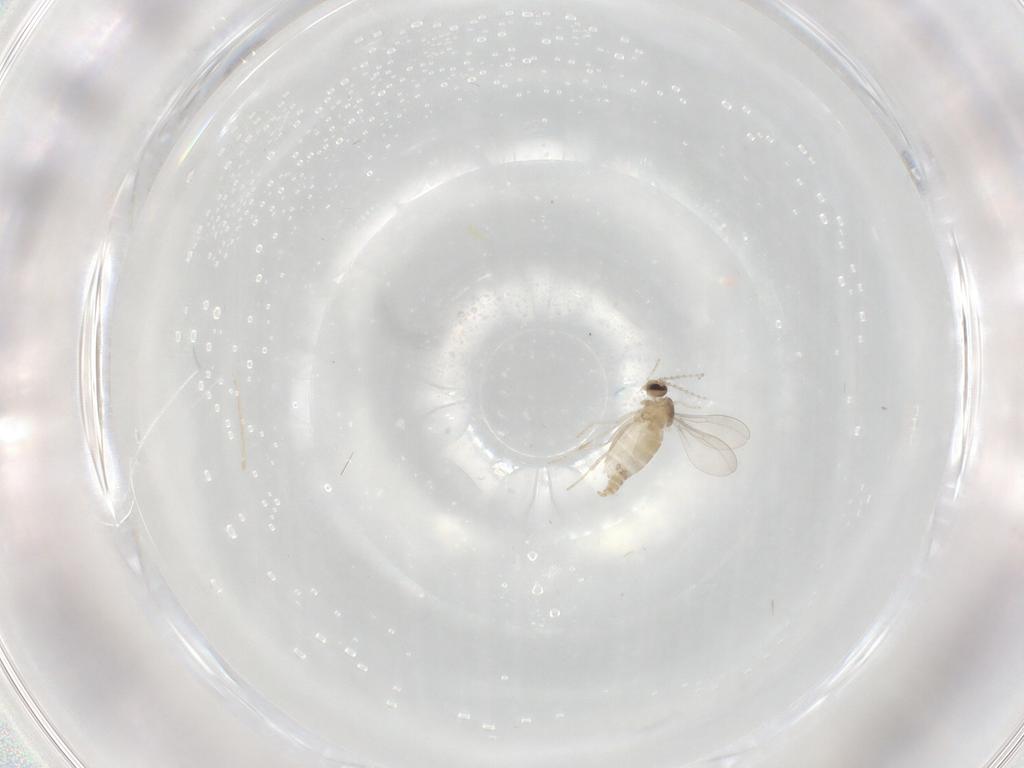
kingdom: Animalia
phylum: Arthropoda
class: Insecta
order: Diptera
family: Cecidomyiidae
